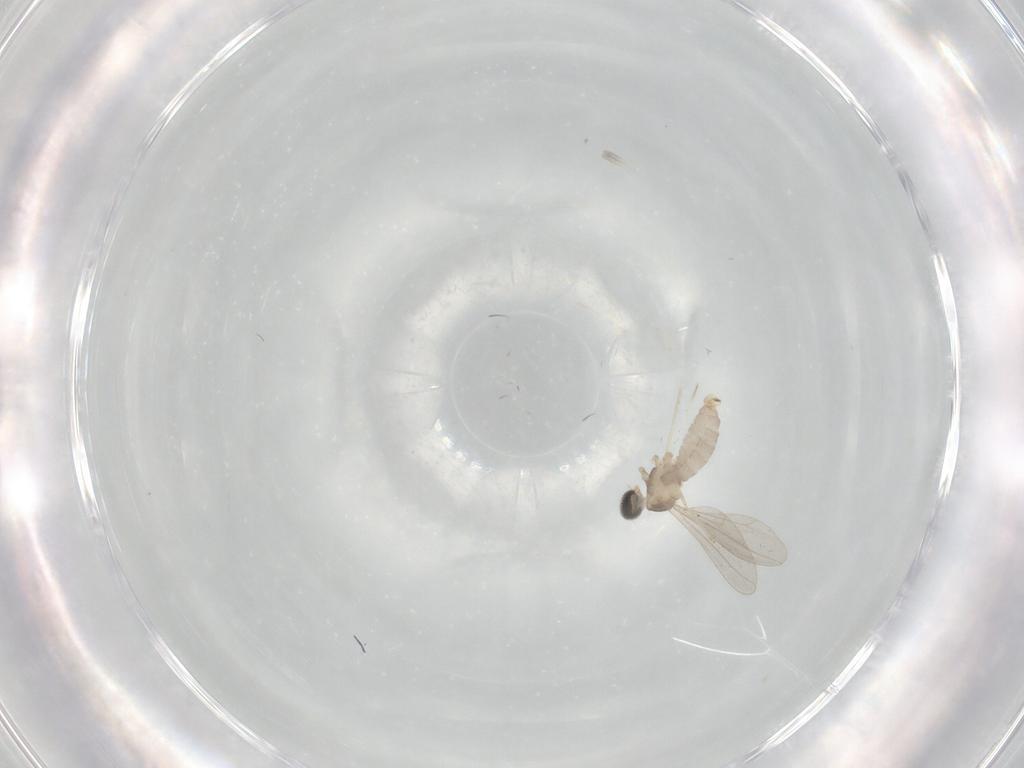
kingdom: Animalia
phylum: Arthropoda
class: Insecta
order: Diptera
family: Cecidomyiidae
